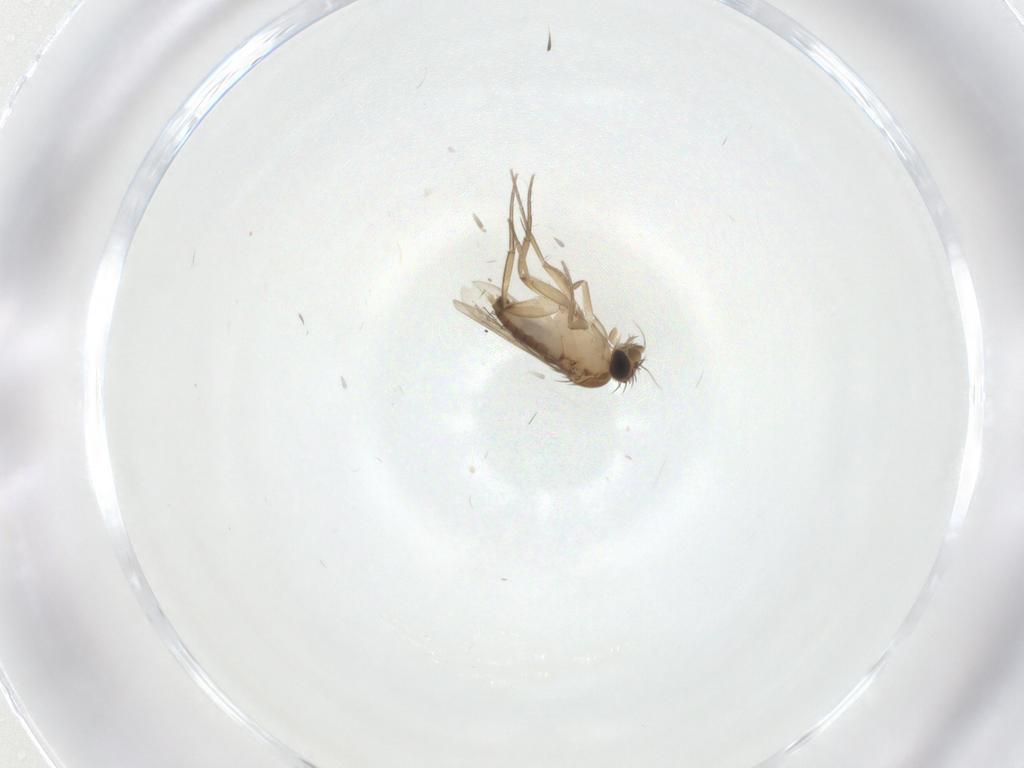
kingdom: Animalia
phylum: Arthropoda
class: Insecta
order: Diptera
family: Phoridae
